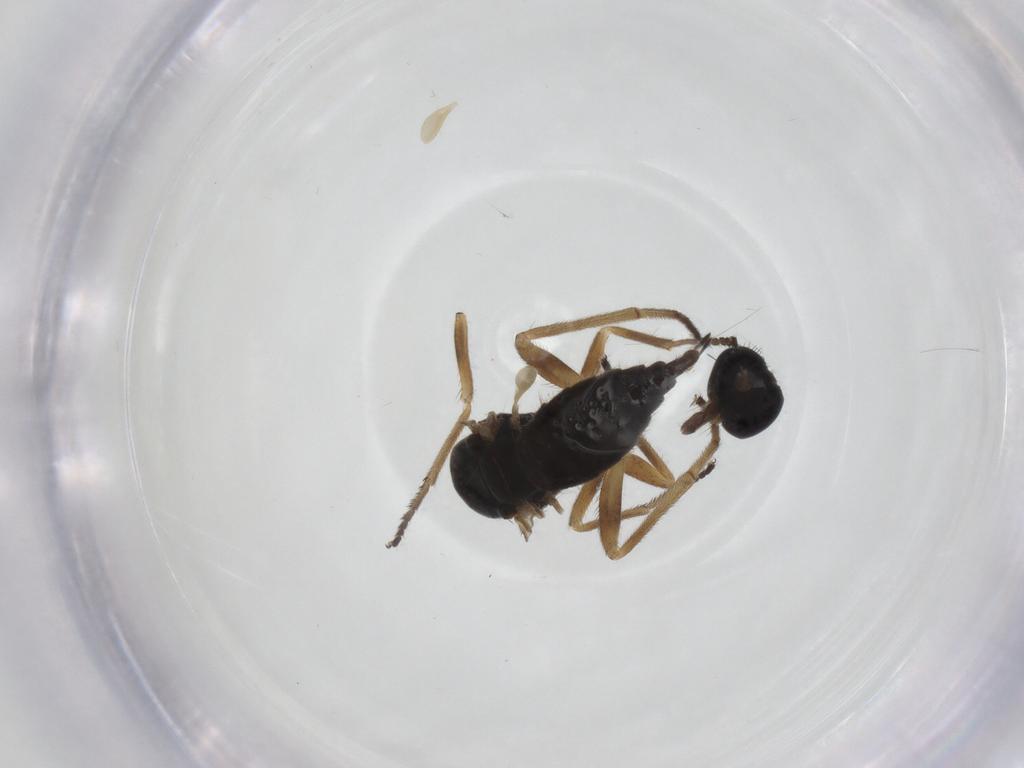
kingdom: Animalia
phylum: Arthropoda
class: Insecta
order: Diptera
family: Empididae
